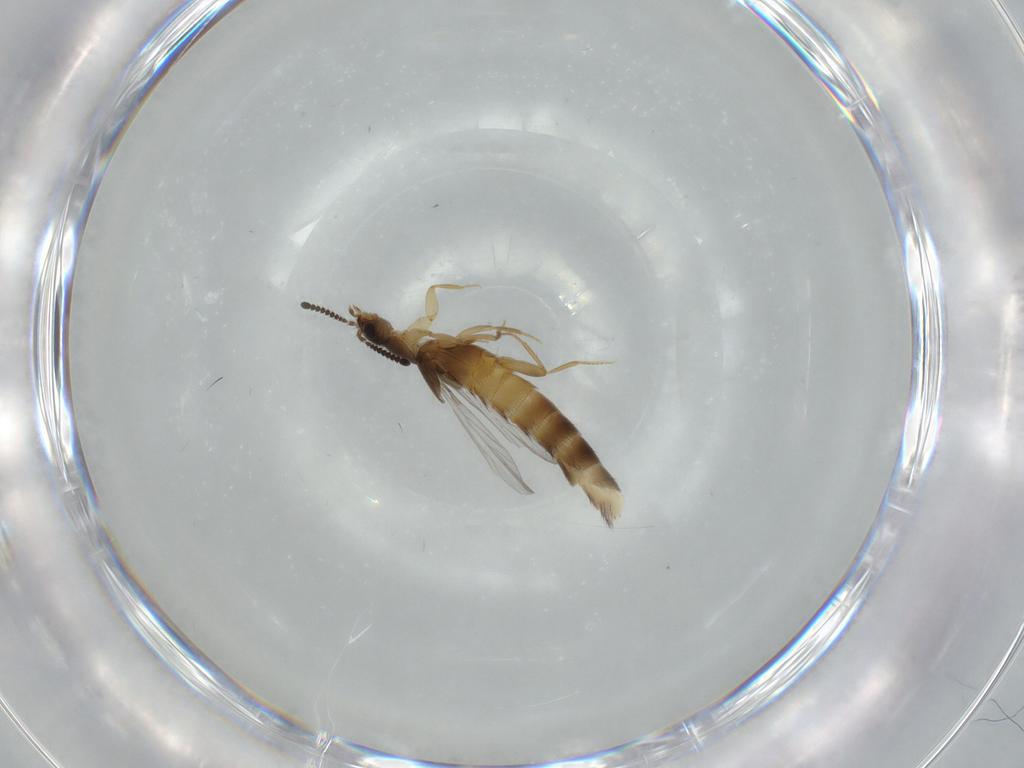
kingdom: Animalia
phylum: Arthropoda
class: Insecta
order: Coleoptera
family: Staphylinidae
